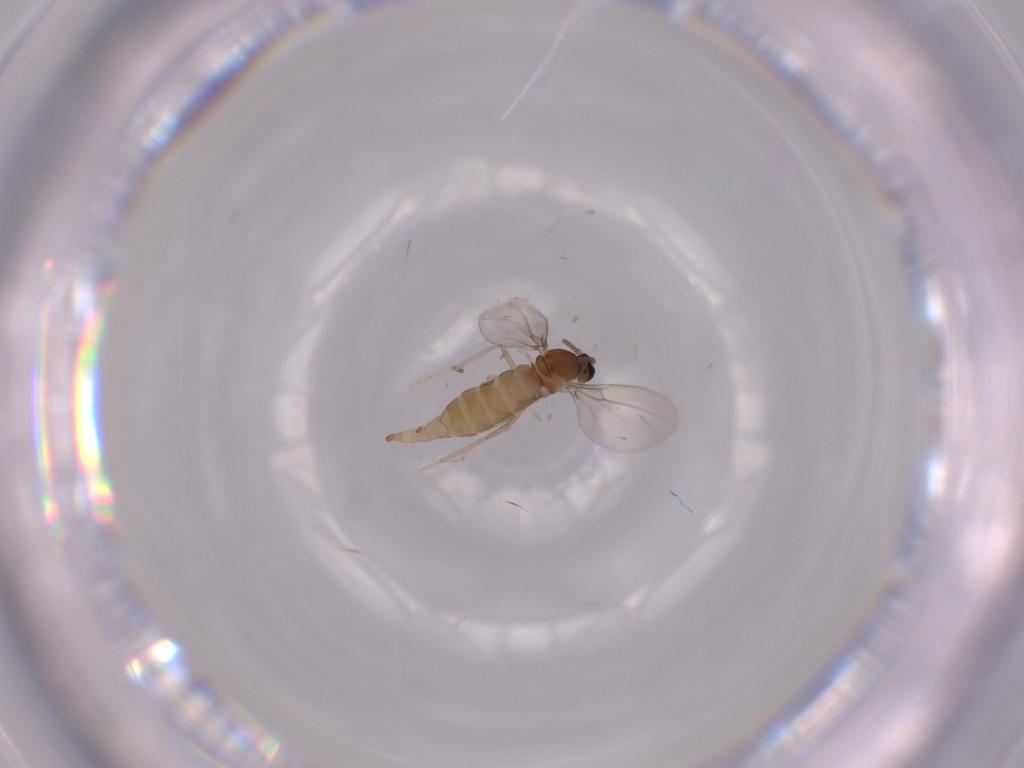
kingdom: Animalia
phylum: Arthropoda
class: Insecta
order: Diptera
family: Cecidomyiidae
